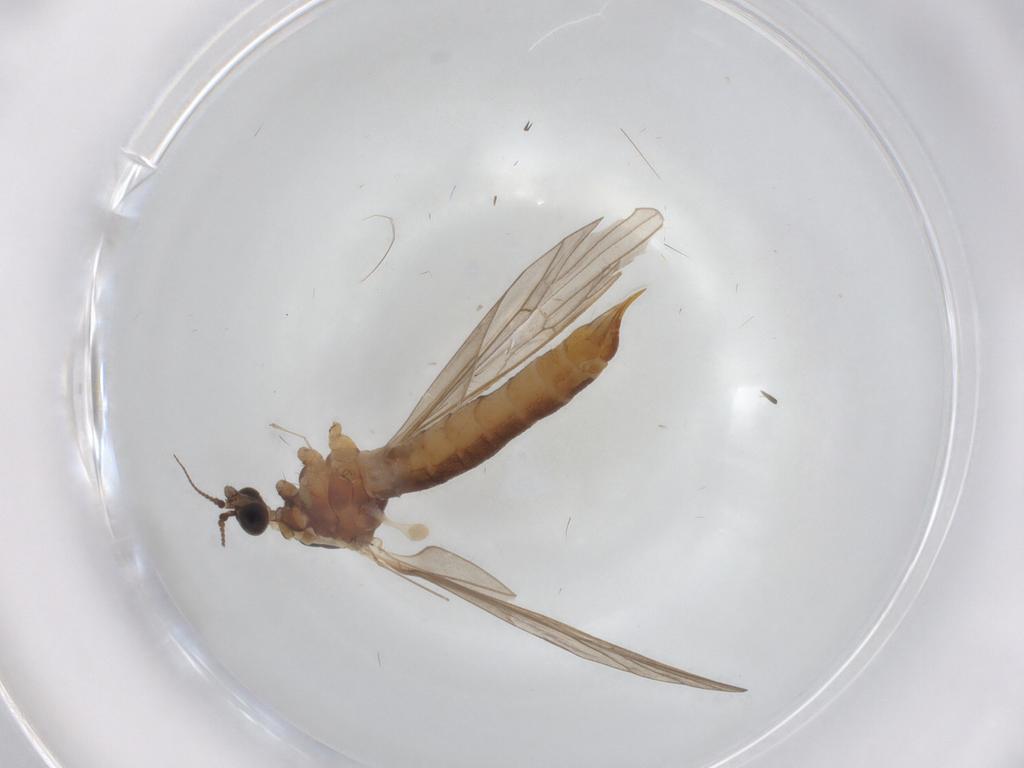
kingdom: Animalia
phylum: Arthropoda
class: Insecta
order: Diptera
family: Limoniidae
